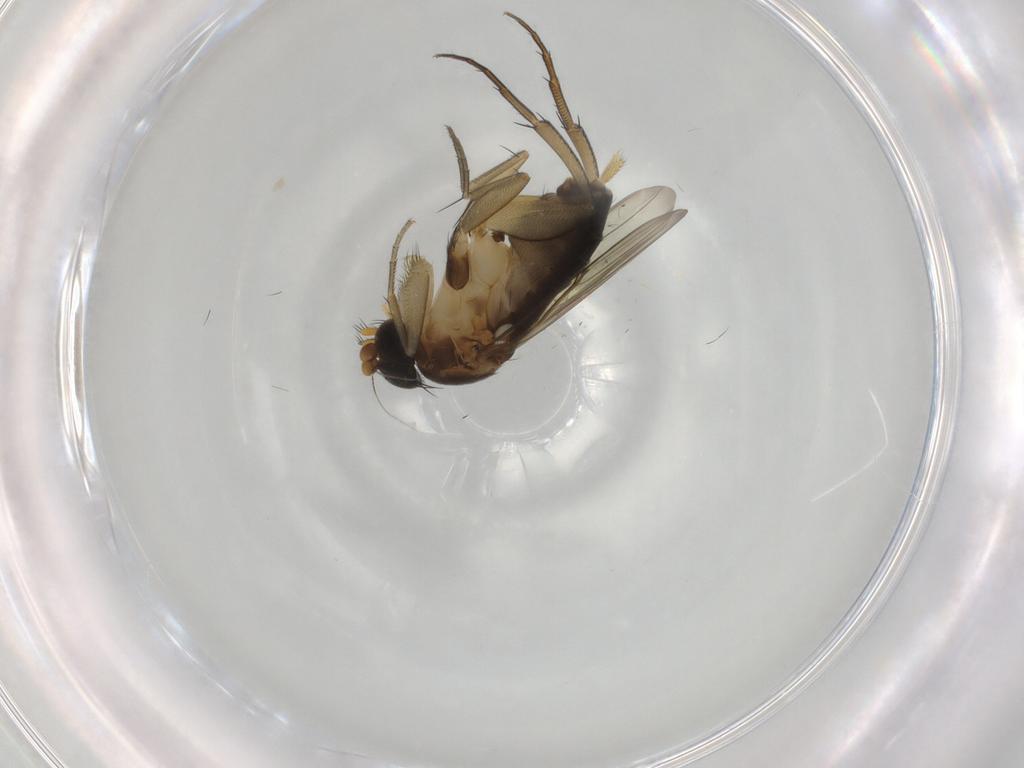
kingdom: Animalia
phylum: Arthropoda
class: Insecta
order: Diptera
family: Phoridae
